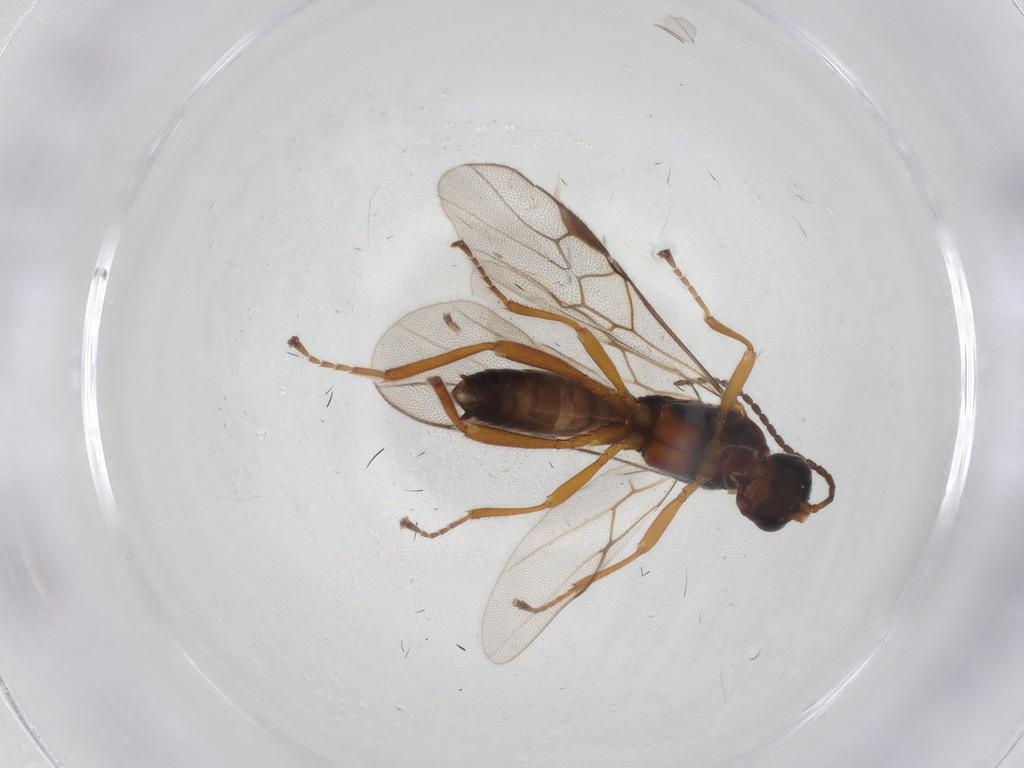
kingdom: Animalia
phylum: Arthropoda
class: Insecta
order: Hymenoptera
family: Braconidae
